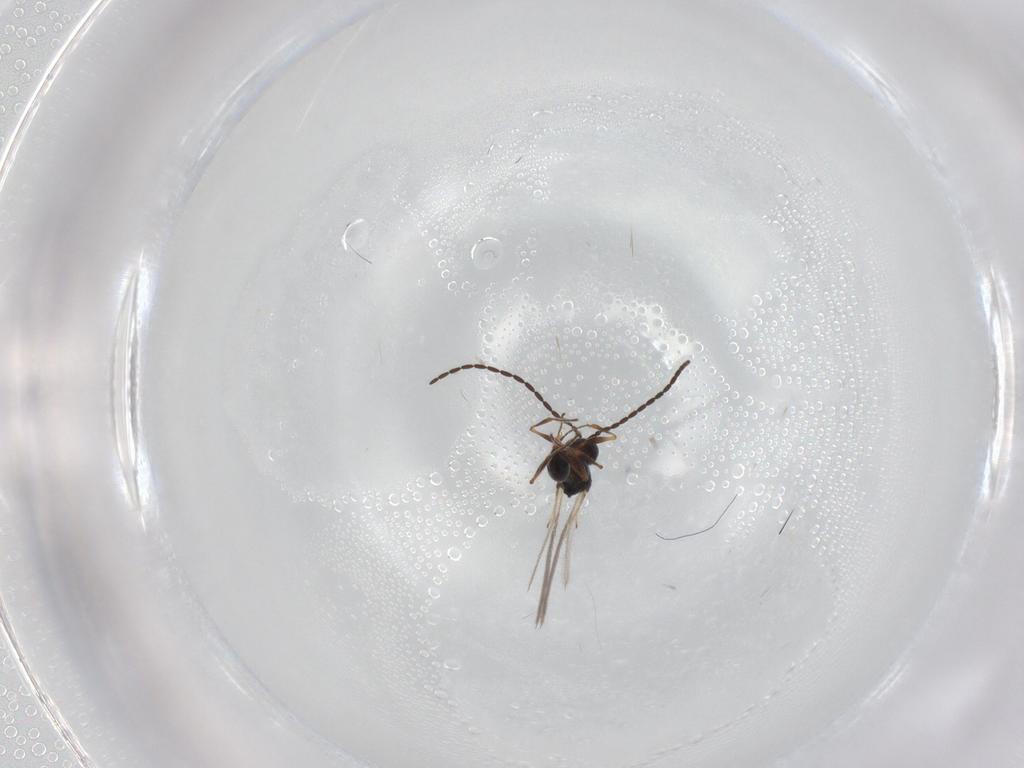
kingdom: Animalia
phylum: Arthropoda
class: Insecta
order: Hymenoptera
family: Figitidae
